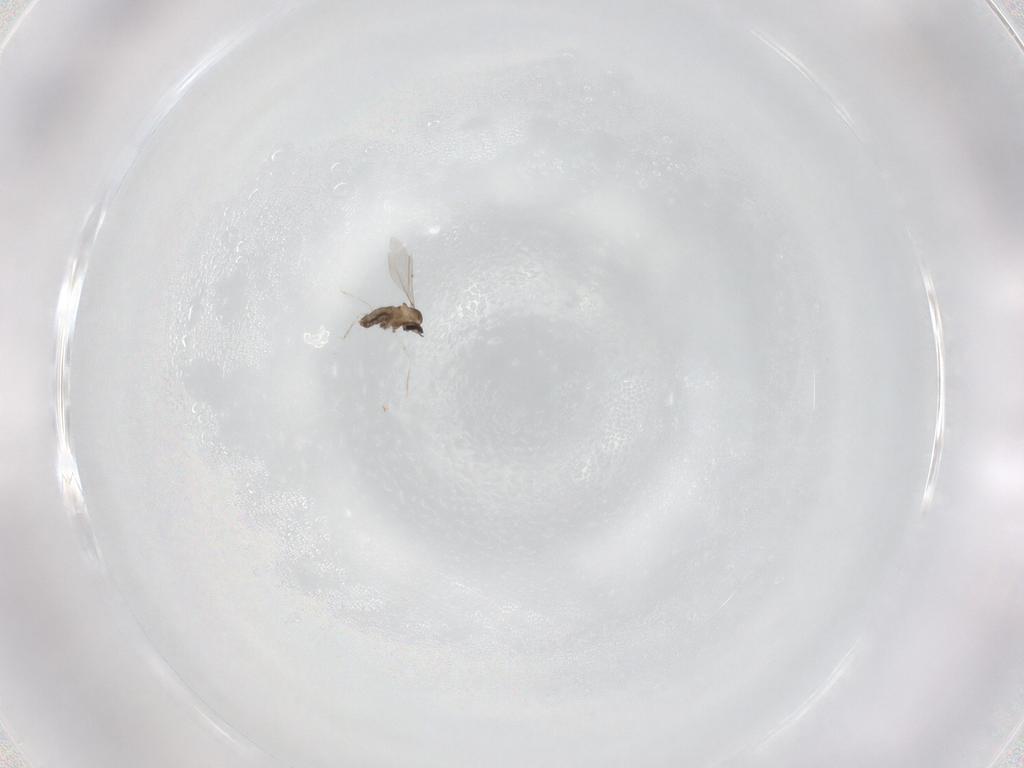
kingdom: Animalia
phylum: Arthropoda
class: Insecta
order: Diptera
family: Cecidomyiidae
